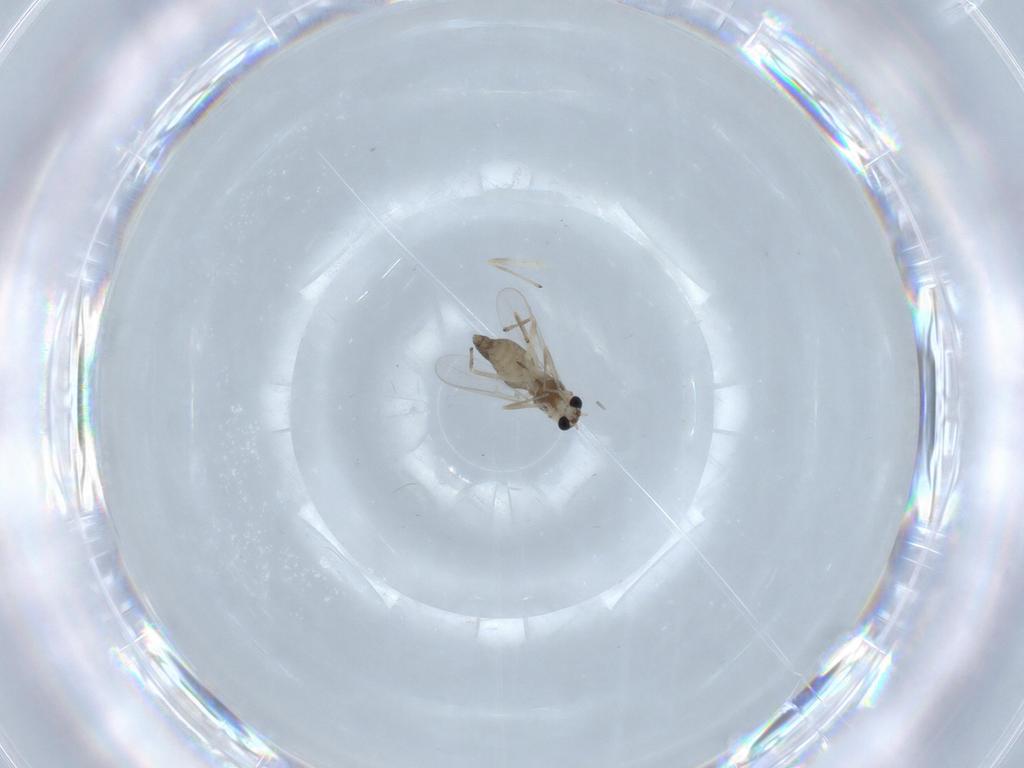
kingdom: Animalia
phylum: Arthropoda
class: Insecta
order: Diptera
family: Chironomidae
